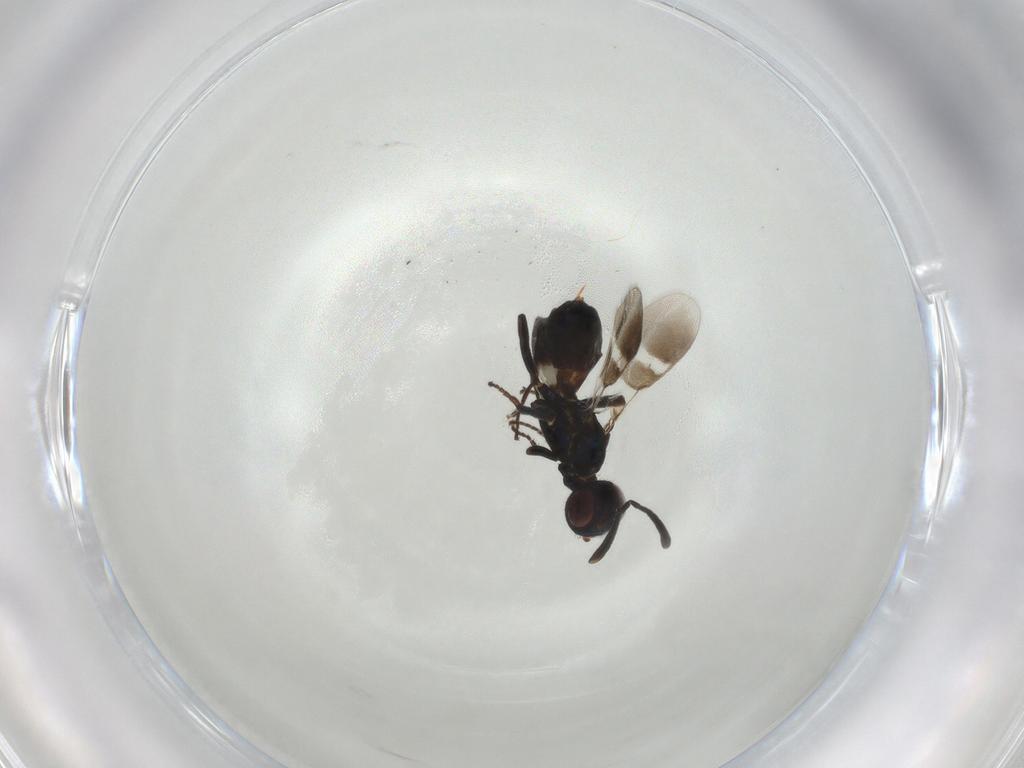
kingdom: Animalia
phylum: Arthropoda
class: Insecta
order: Hymenoptera
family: Eupelmidae
